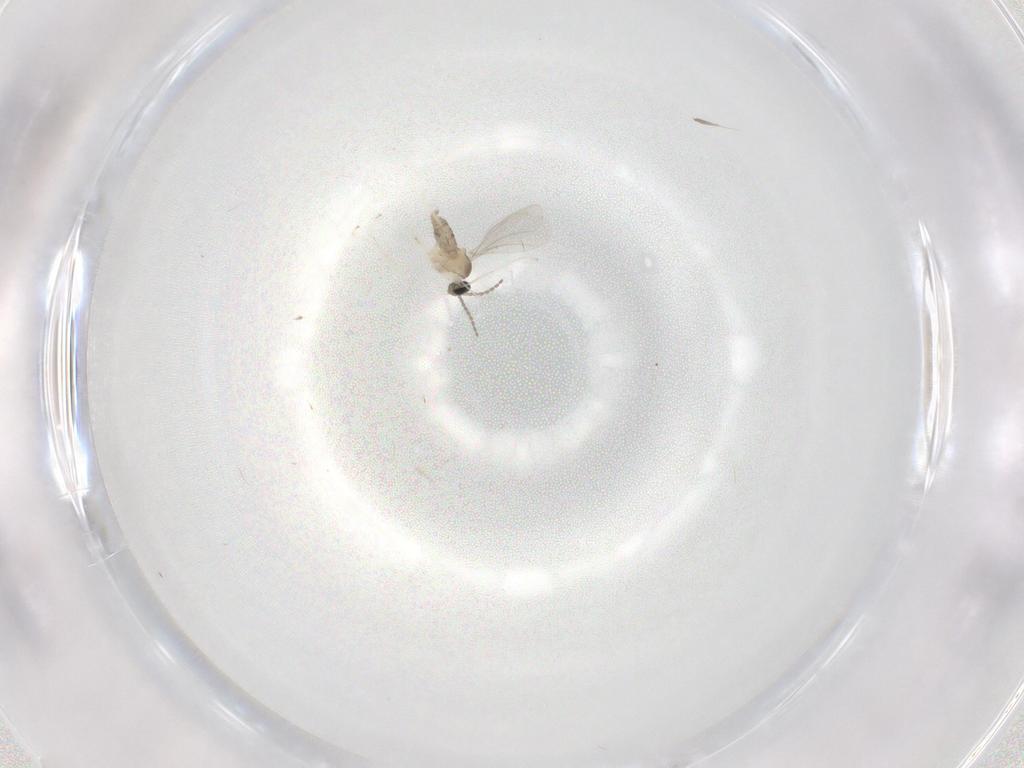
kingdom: Animalia
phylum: Arthropoda
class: Insecta
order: Diptera
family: Cecidomyiidae
